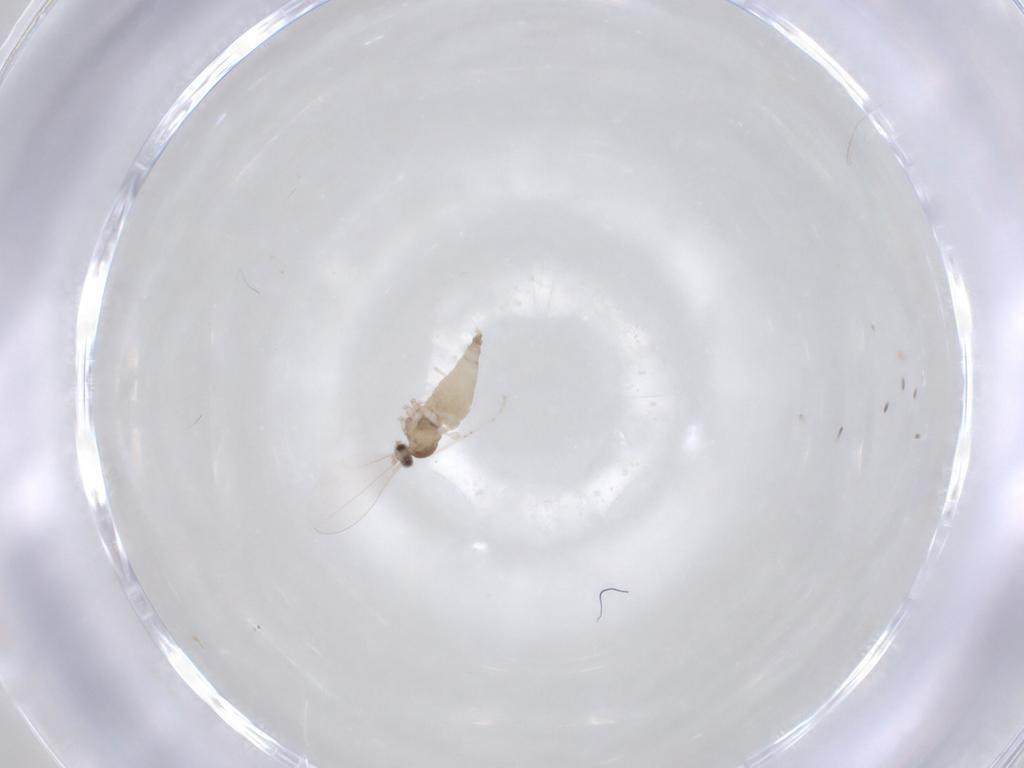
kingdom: Animalia
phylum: Arthropoda
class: Insecta
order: Diptera
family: Cecidomyiidae
